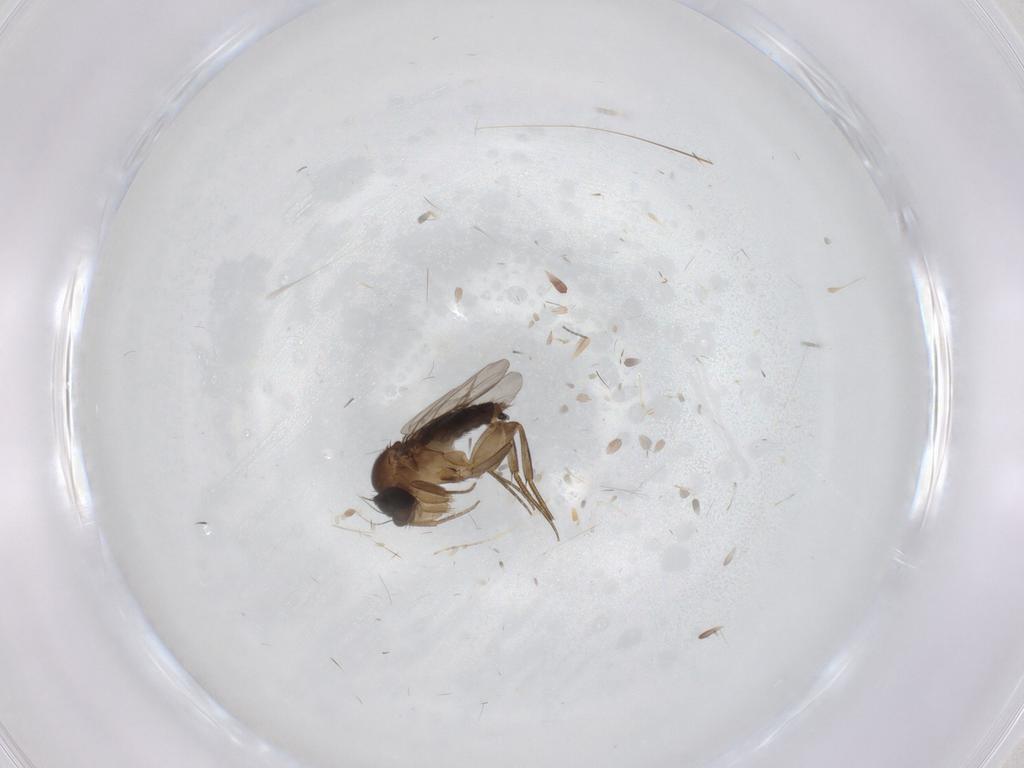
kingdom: Animalia
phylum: Arthropoda
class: Insecta
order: Diptera
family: Phoridae
